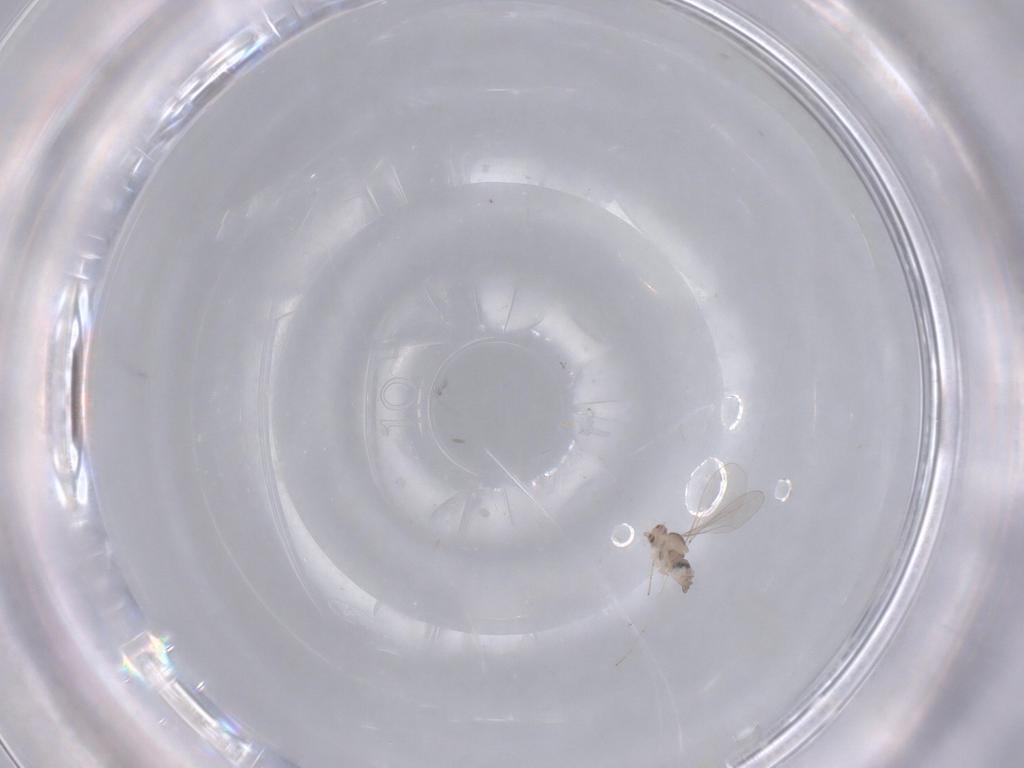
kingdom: Animalia
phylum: Arthropoda
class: Insecta
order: Diptera
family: Cecidomyiidae
